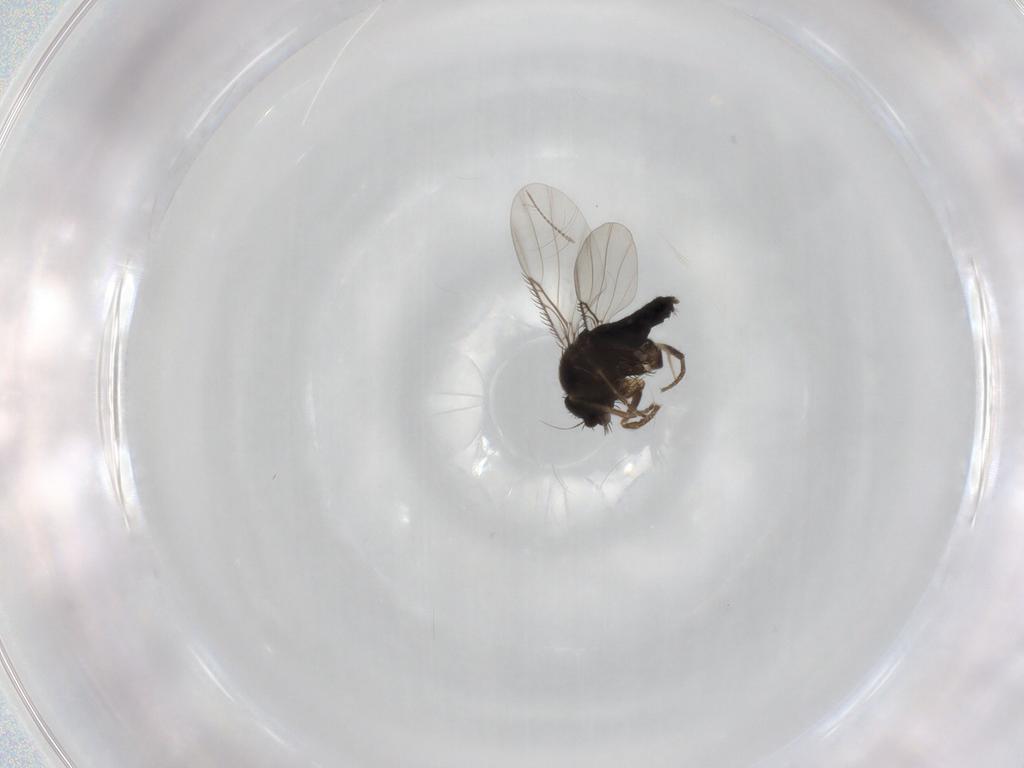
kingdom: Animalia
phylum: Arthropoda
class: Insecta
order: Diptera
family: Phoridae
